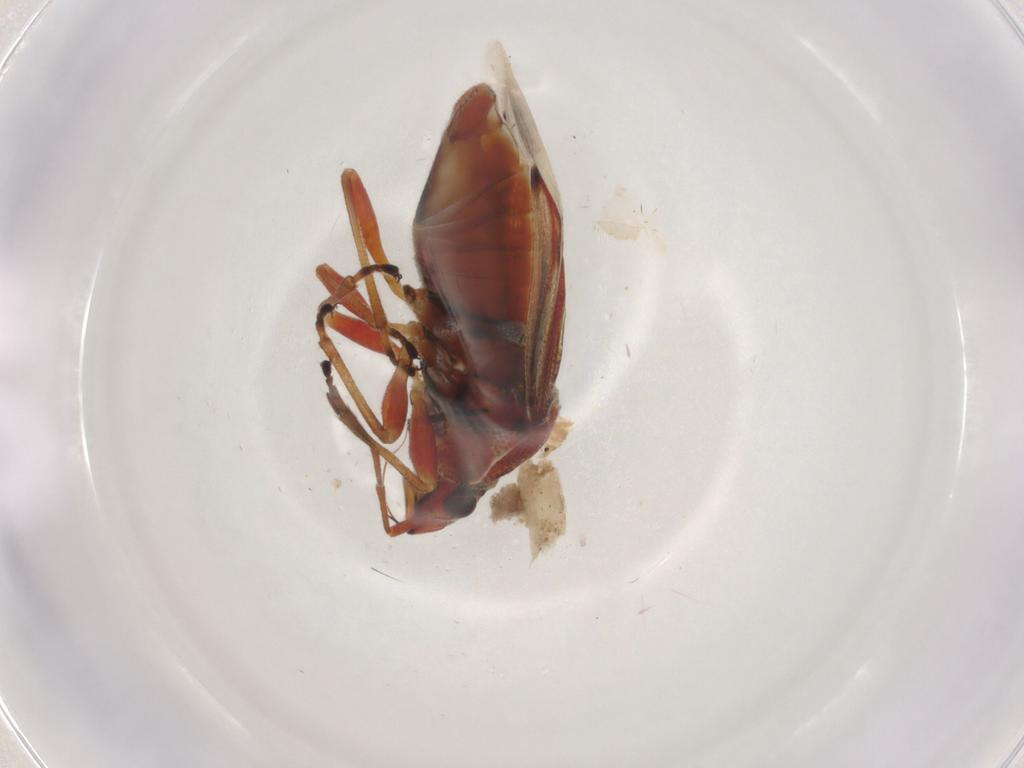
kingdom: Animalia
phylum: Arthropoda
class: Insecta
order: Hemiptera
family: Lygaeidae
